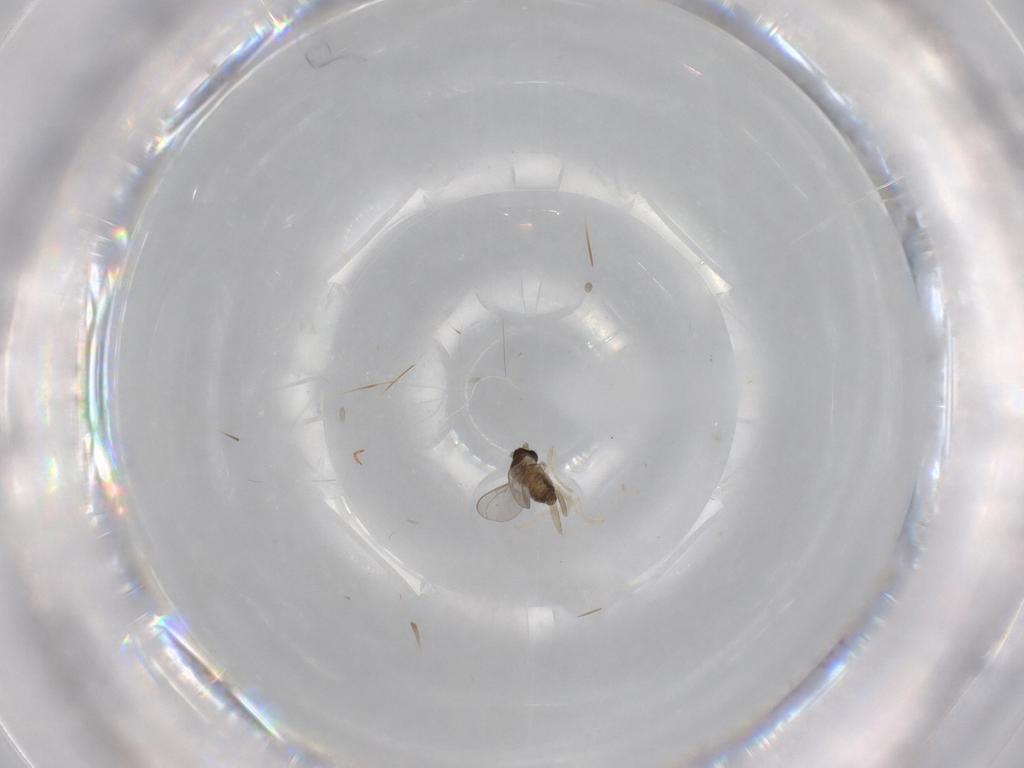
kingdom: Animalia
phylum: Arthropoda
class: Insecta
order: Diptera
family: Cecidomyiidae
